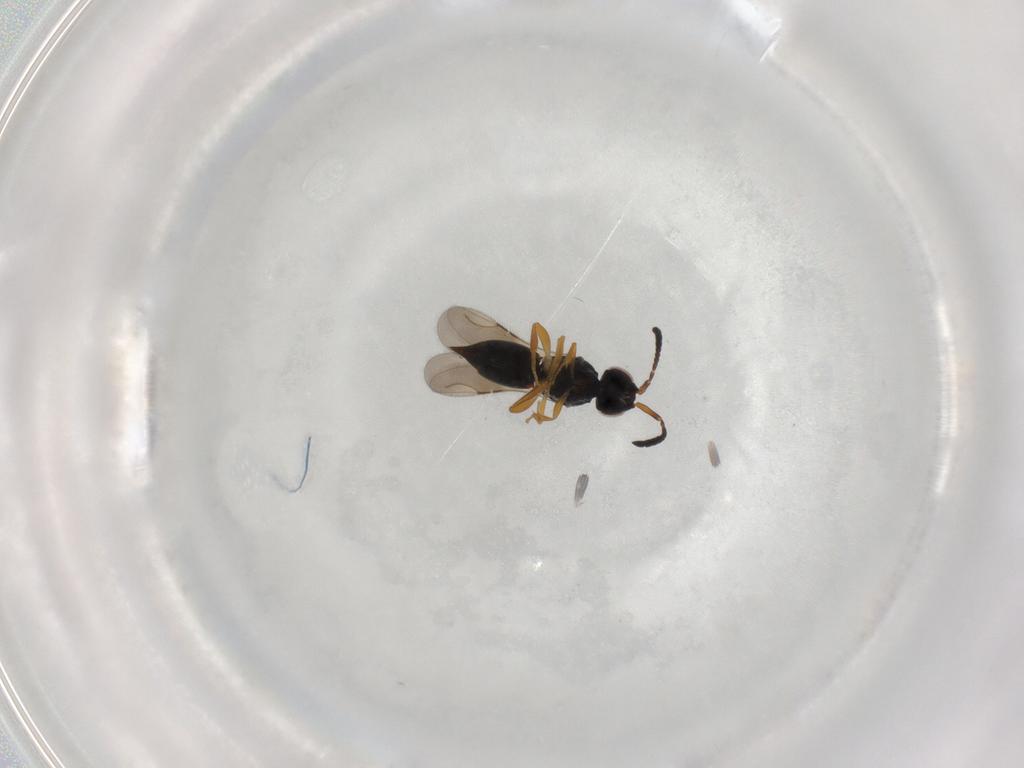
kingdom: Animalia
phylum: Arthropoda
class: Insecta
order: Hymenoptera
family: Ceraphronidae
